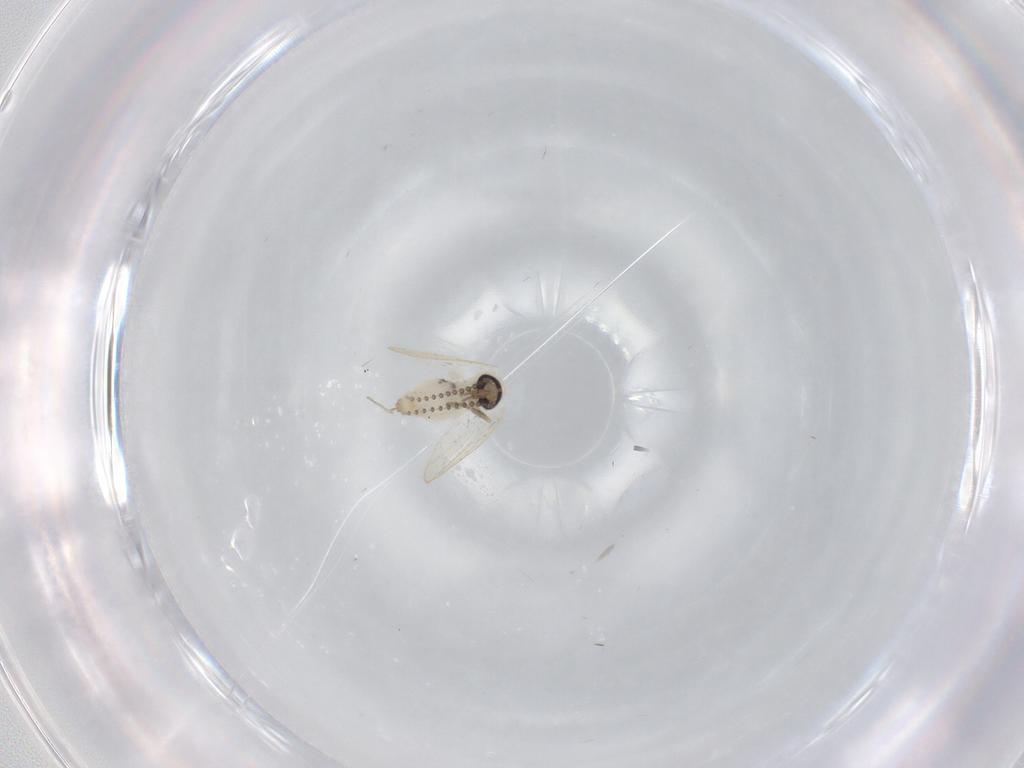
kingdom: Animalia
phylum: Arthropoda
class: Insecta
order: Diptera
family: Psychodidae
